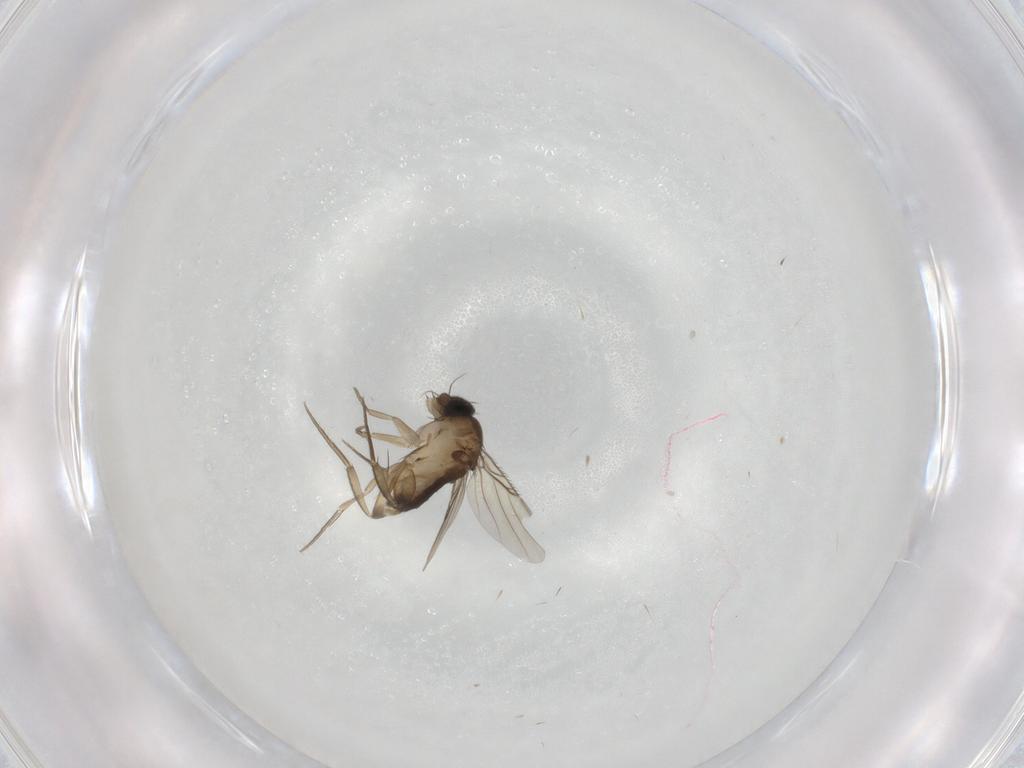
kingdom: Animalia
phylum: Arthropoda
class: Insecta
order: Diptera
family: Phoridae
